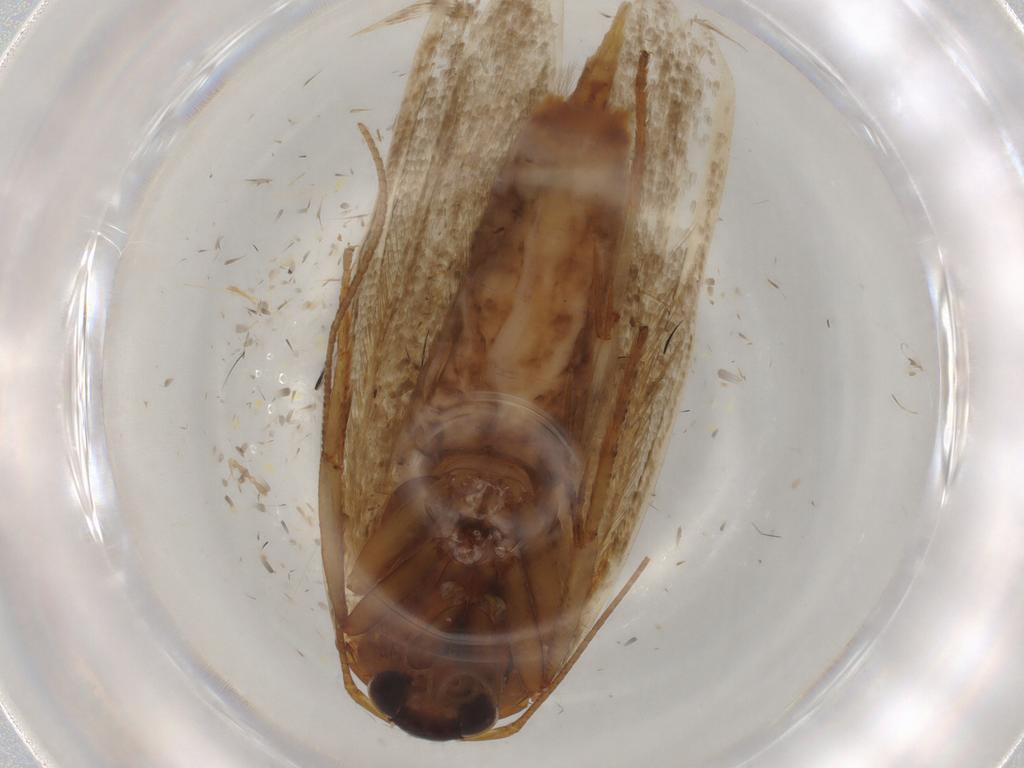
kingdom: Animalia
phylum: Arthropoda
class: Insecta
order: Lepidoptera
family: Blastobasidae
